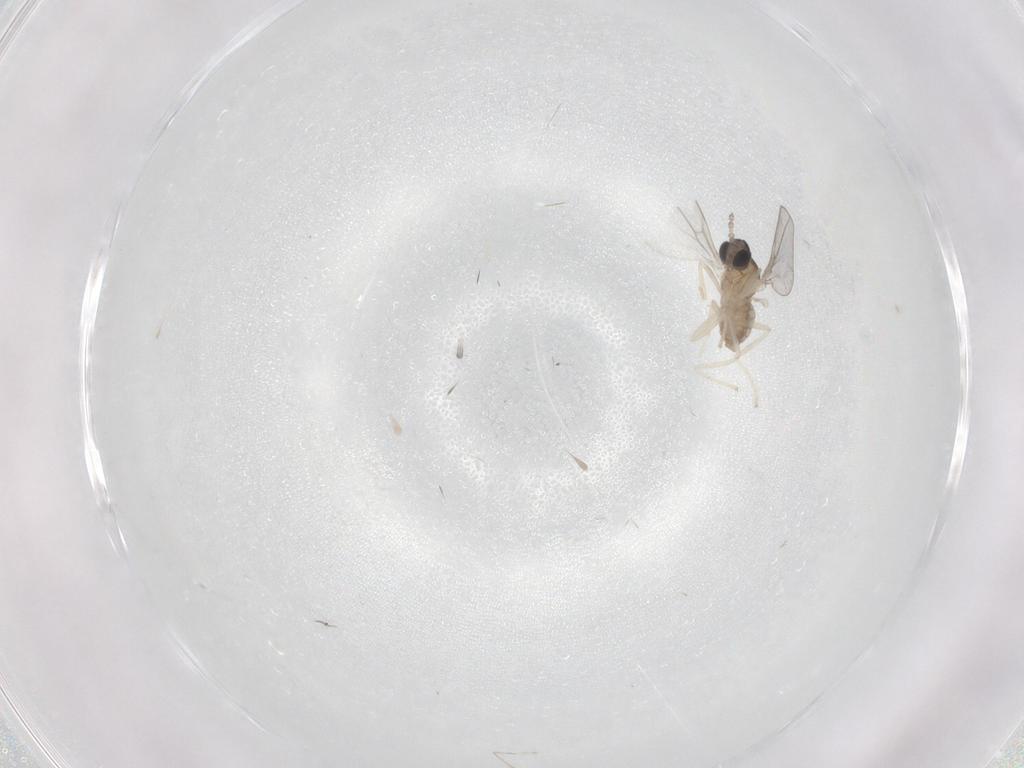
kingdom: Animalia
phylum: Arthropoda
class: Insecta
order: Diptera
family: Cecidomyiidae
